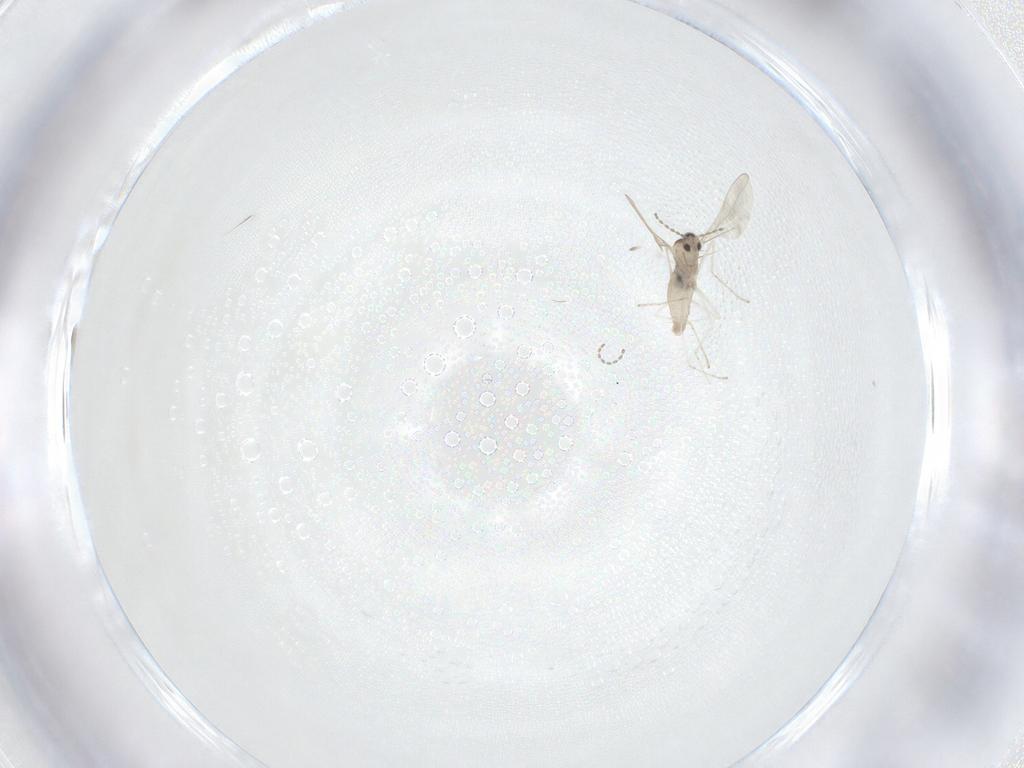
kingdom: Animalia
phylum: Arthropoda
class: Insecta
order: Diptera
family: Cecidomyiidae
